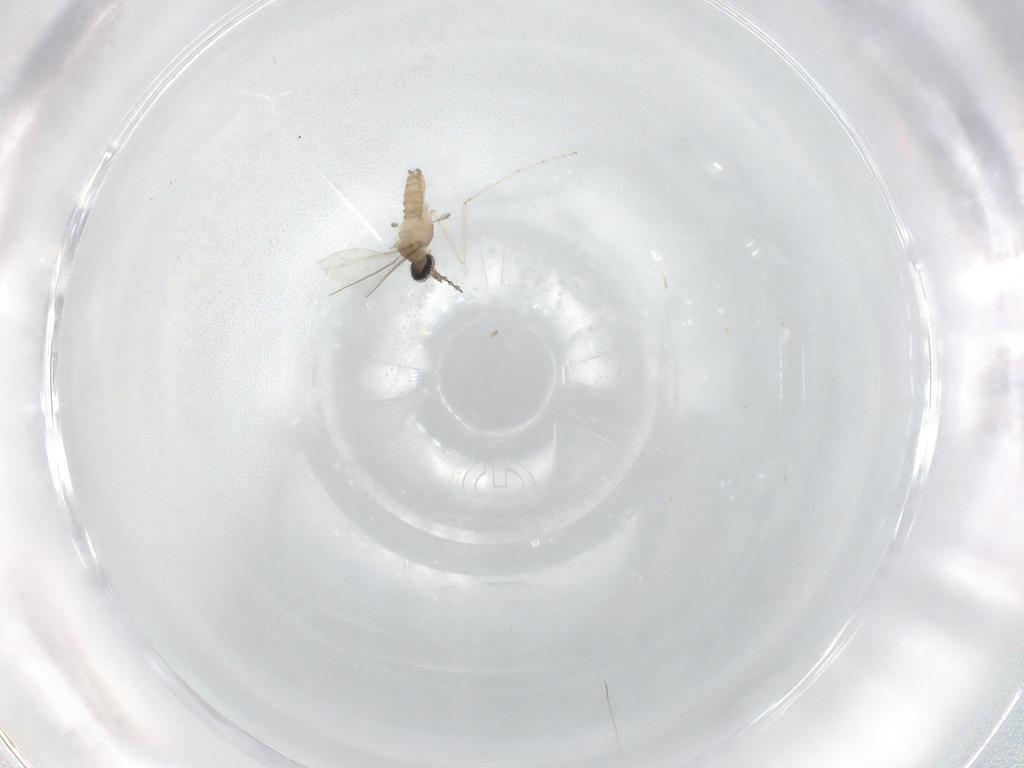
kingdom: Animalia
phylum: Arthropoda
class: Insecta
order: Diptera
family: Cecidomyiidae
